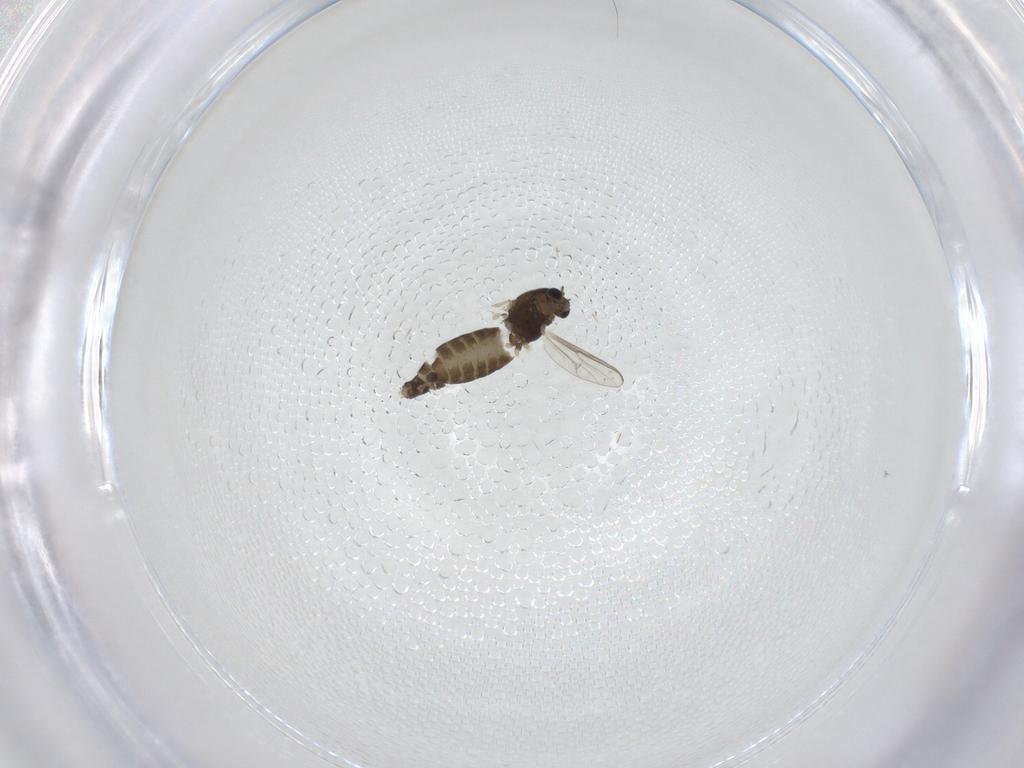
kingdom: Animalia
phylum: Arthropoda
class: Insecta
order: Diptera
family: Chironomidae
